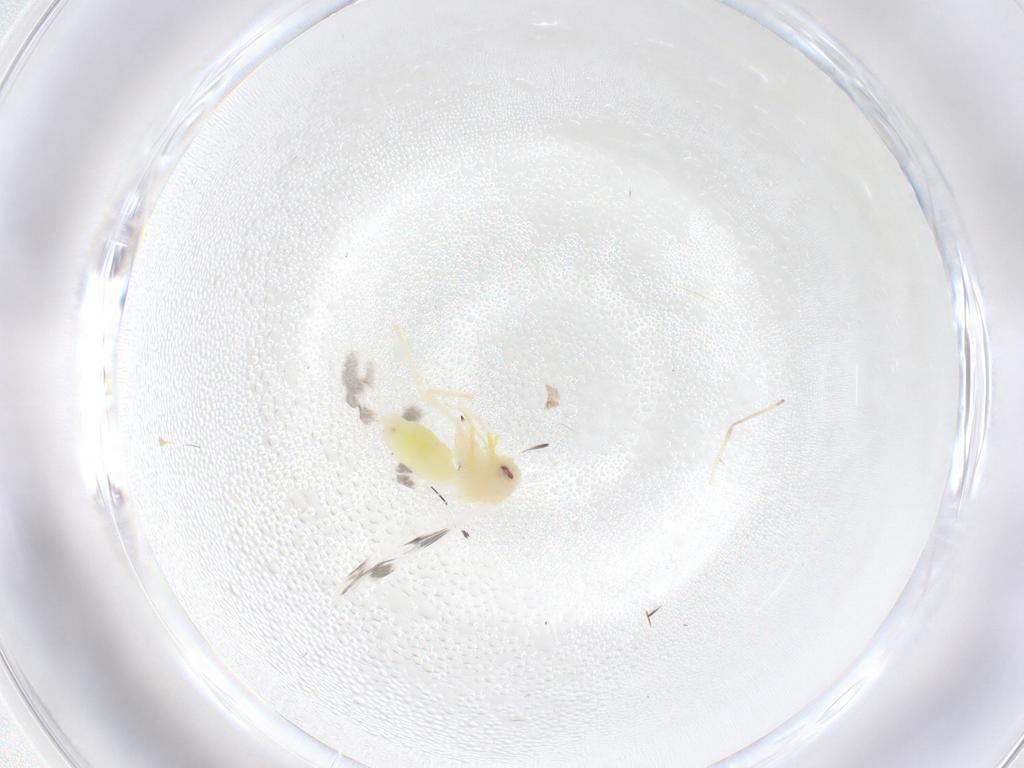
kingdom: Animalia
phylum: Arthropoda
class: Insecta
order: Hemiptera
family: Aleyrodidae
